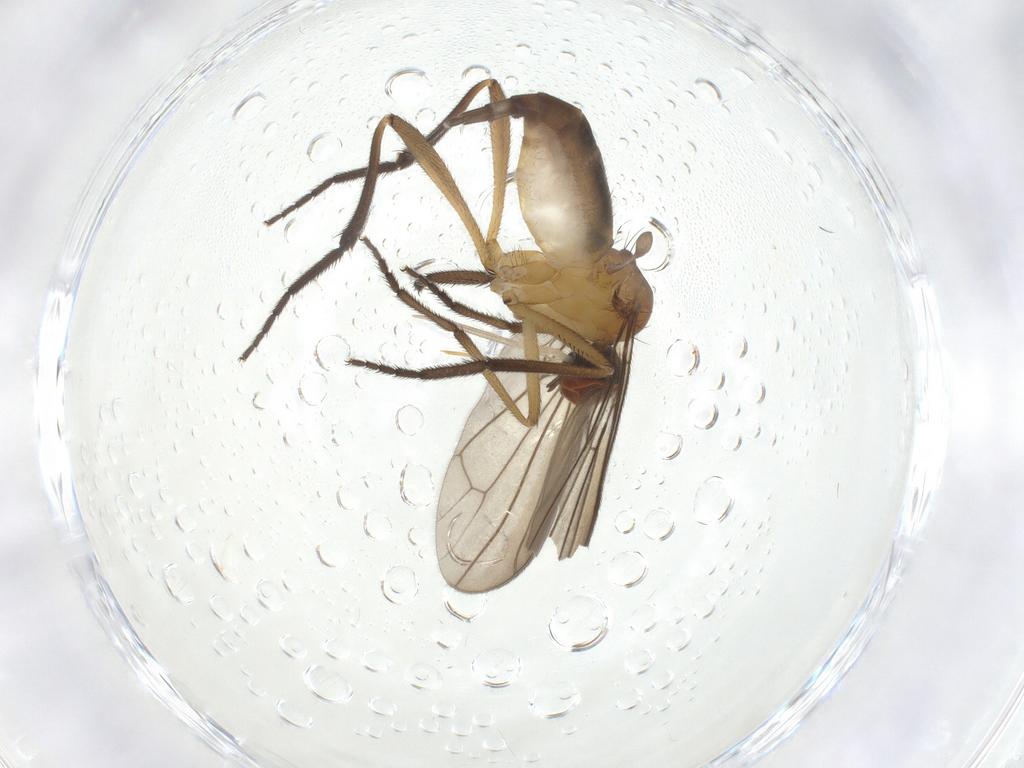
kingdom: Animalia
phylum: Arthropoda
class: Insecta
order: Diptera
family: Empididae
